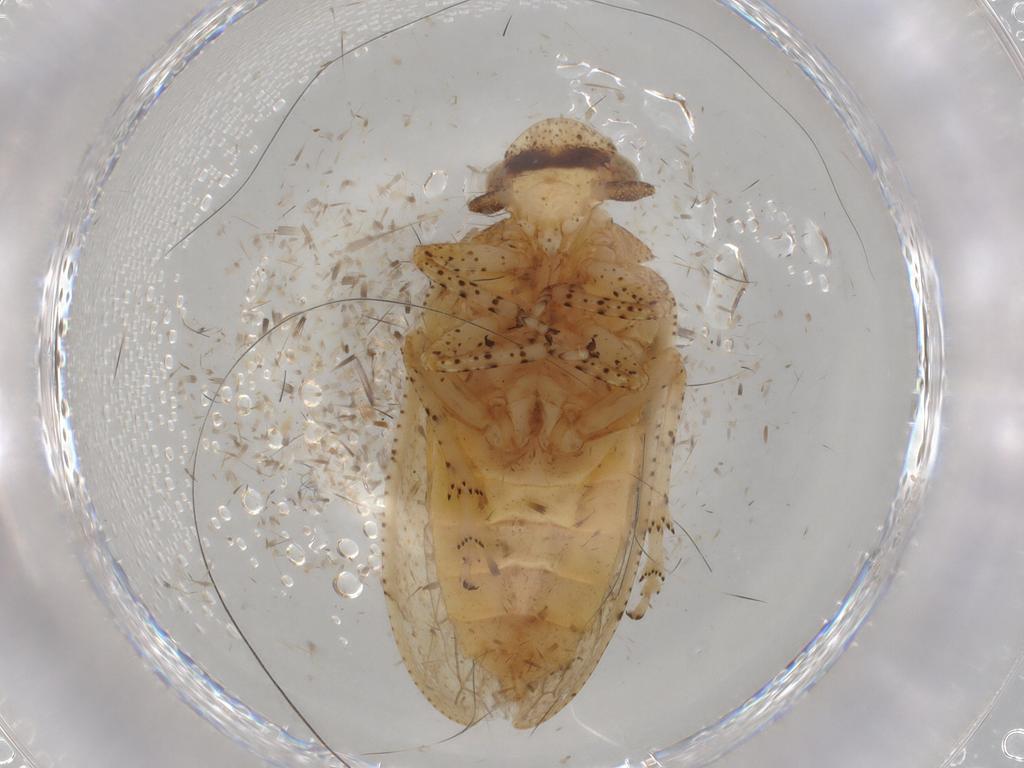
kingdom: Animalia
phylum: Arthropoda
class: Insecta
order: Hemiptera
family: Tettigometridae
